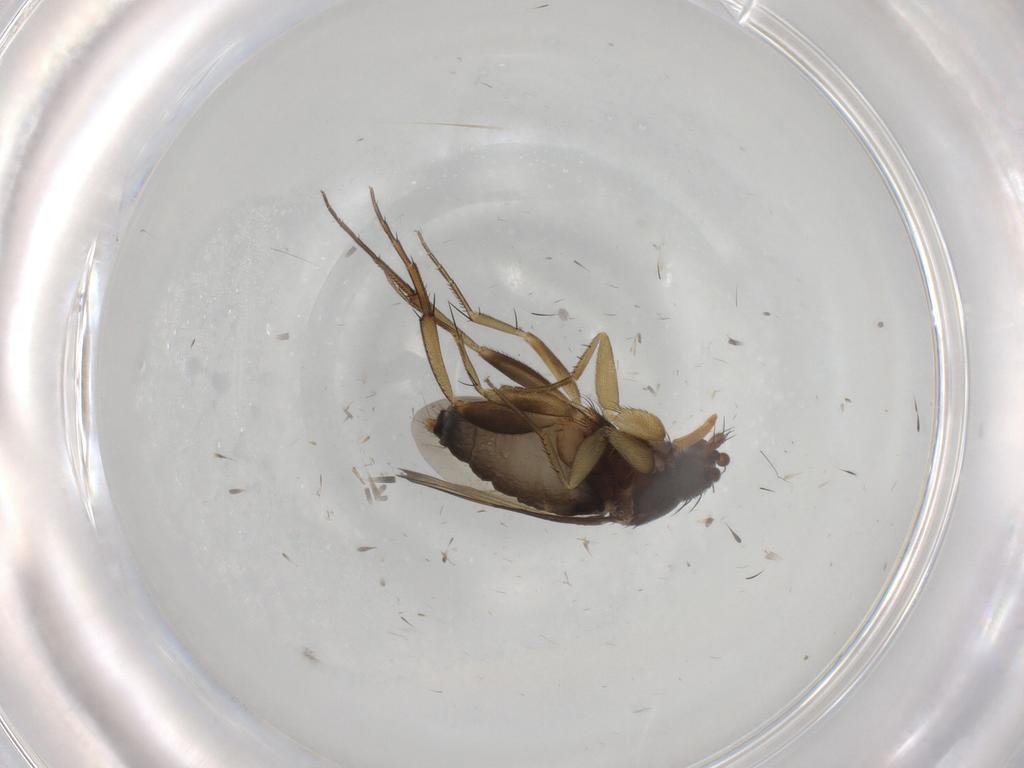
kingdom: Animalia
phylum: Arthropoda
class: Insecta
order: Diptera
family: Phoridae
